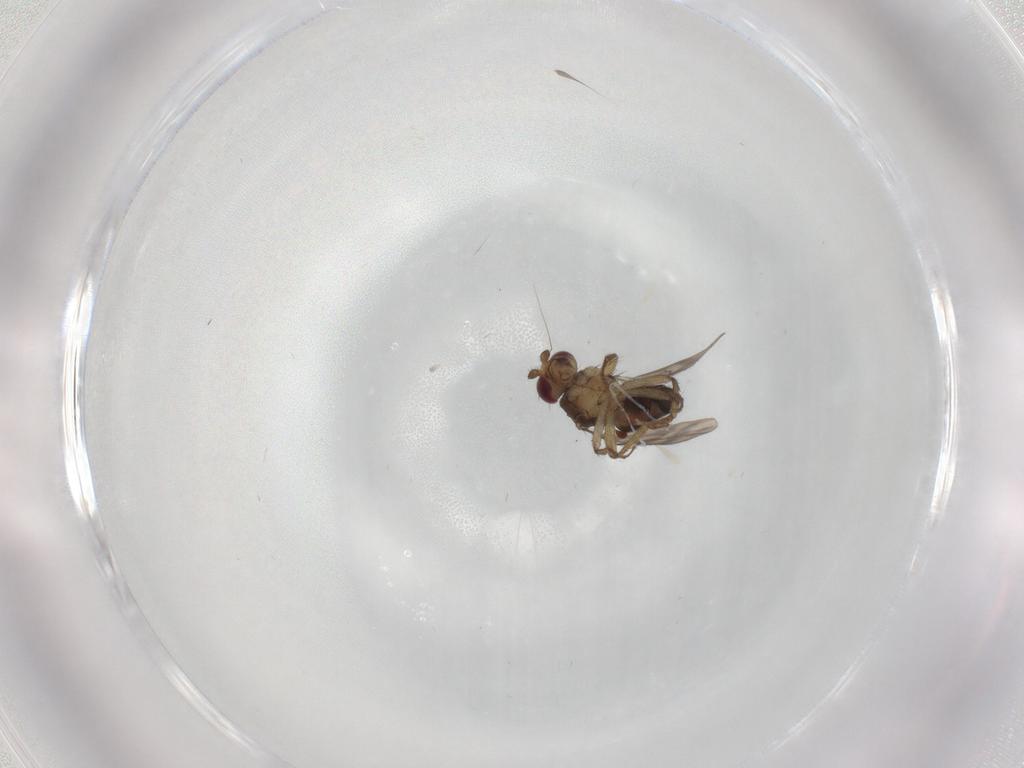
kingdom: Animalia
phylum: Arthropoda
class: Insecta
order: Diptera
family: Sphaeroceridae
